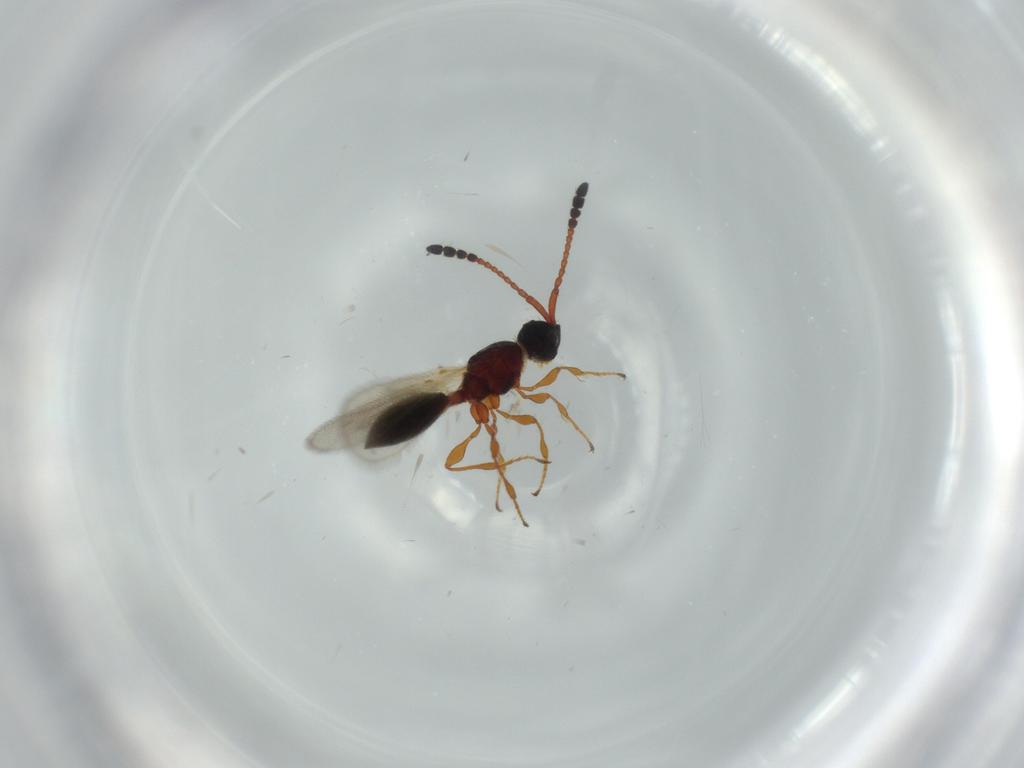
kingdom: Animalia
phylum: Arthropoda
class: Insecta
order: Hymenoptera
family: Diapriidae
